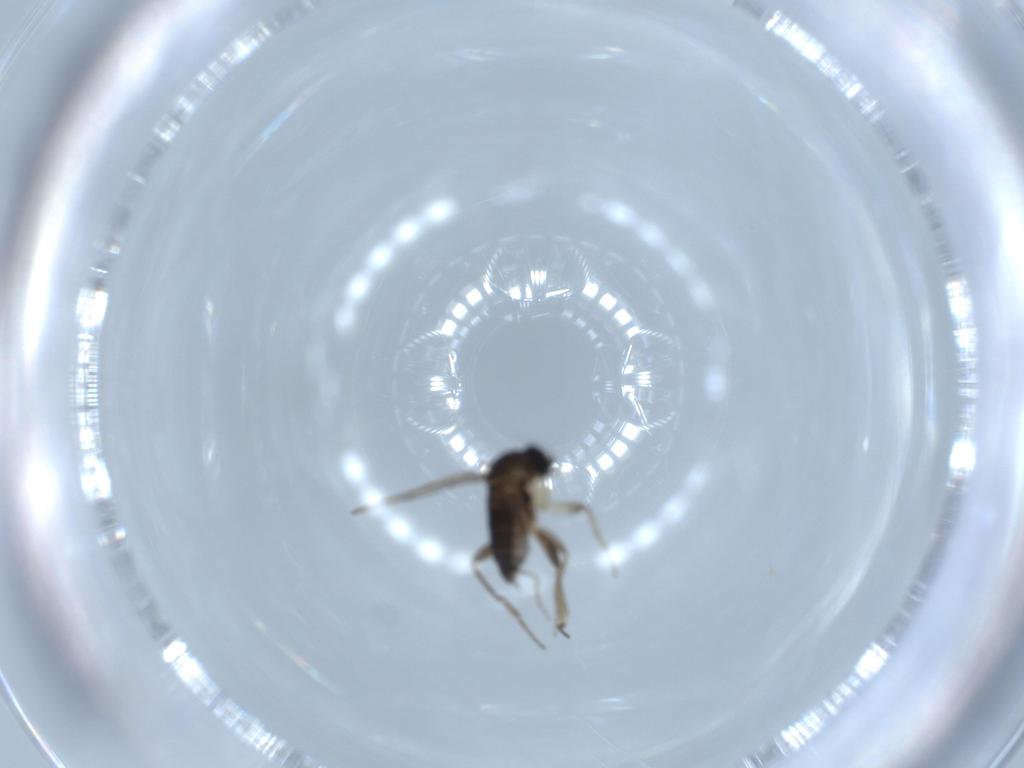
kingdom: Animalia
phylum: Arthropoda
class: Insecta
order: Diptera
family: Psychodidae
